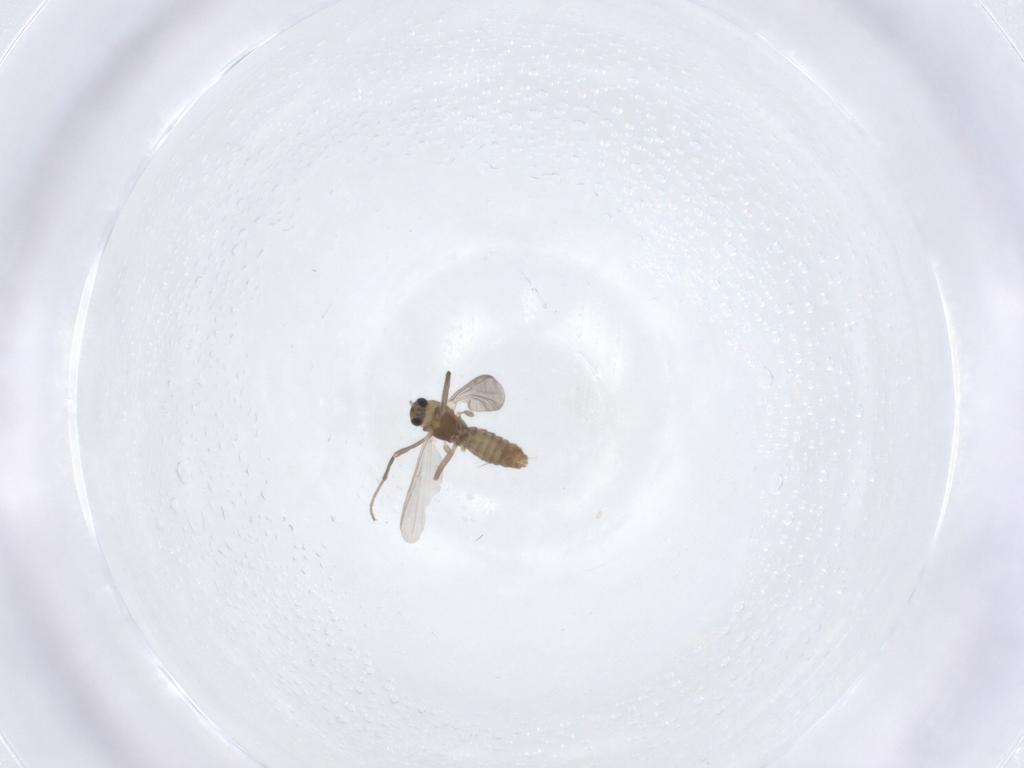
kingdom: Animalia
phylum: Arthropoda
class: Insecta
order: Diptera
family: Chironomidae
